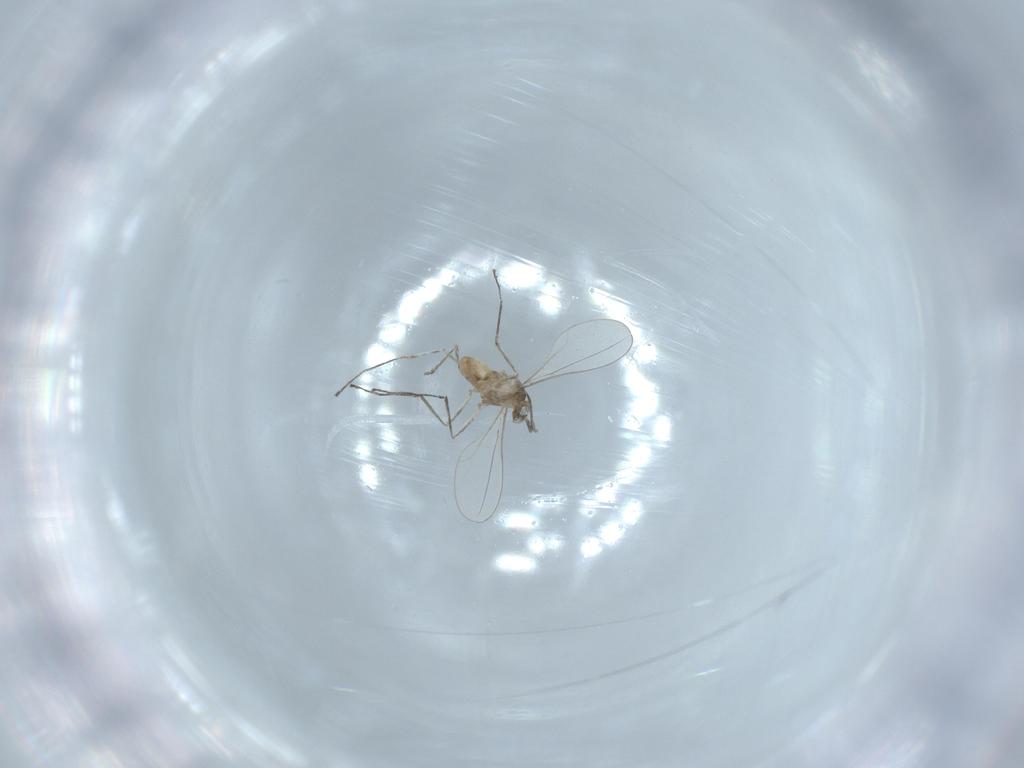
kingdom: Animalia
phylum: Arthropoda
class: Insecta
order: Diptera
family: Cecidomyiidae
